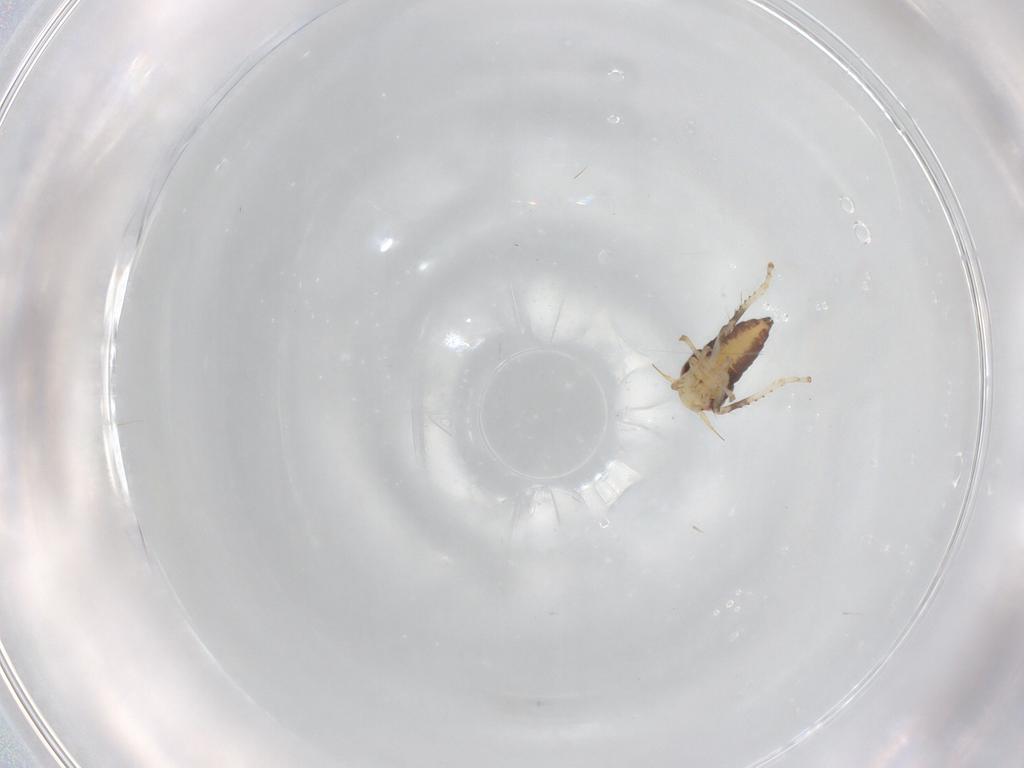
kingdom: Animalia
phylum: Arthropoda
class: Insecta
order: Hemiptera
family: Cicadellidae
